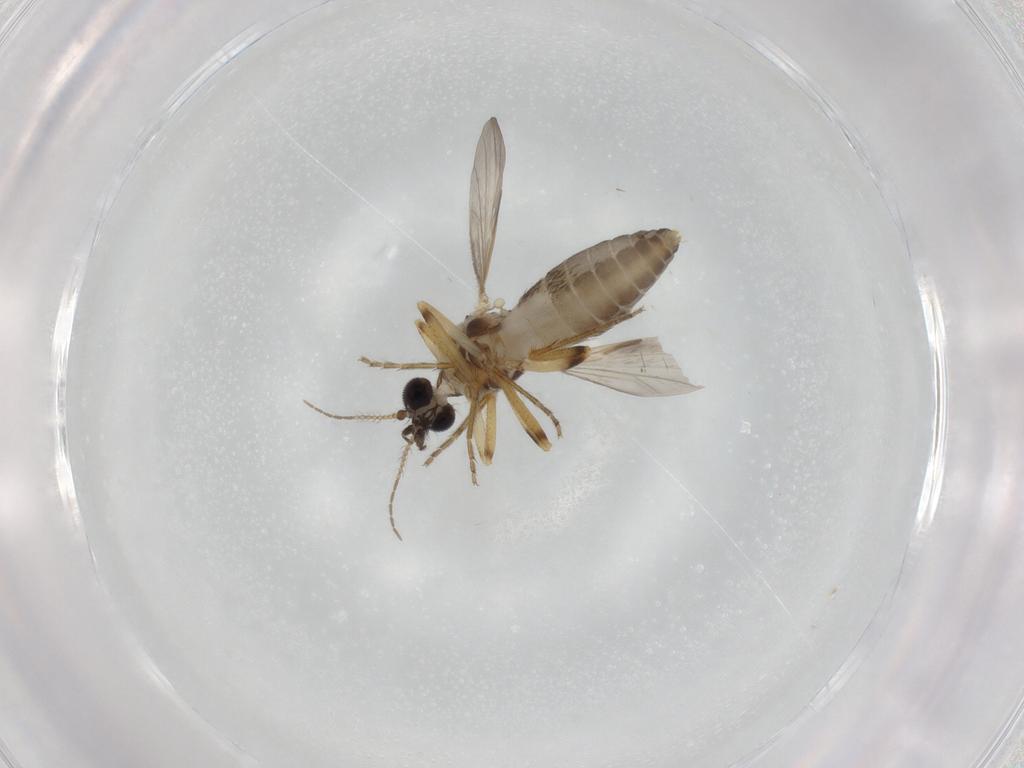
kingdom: Animalia
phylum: Arthropoda
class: Insecta
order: Diptera
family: Ceratopogonidae
